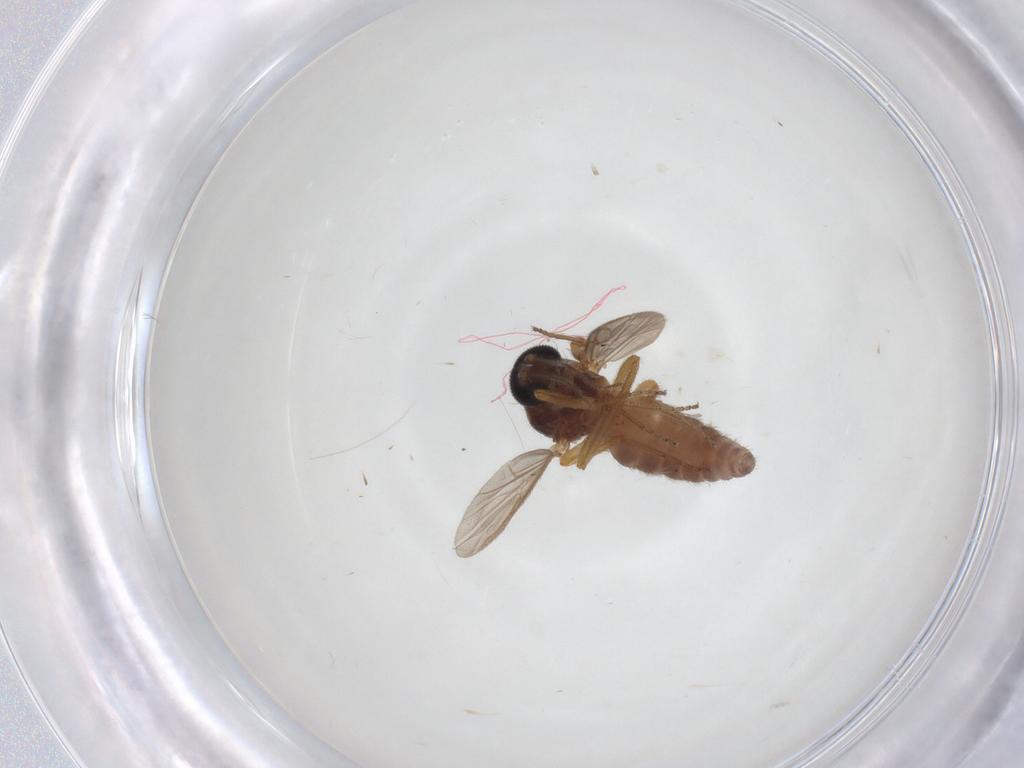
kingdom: Animalia
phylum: Arthropoda
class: Insecta
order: Diptera
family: Ceratopogonidae
